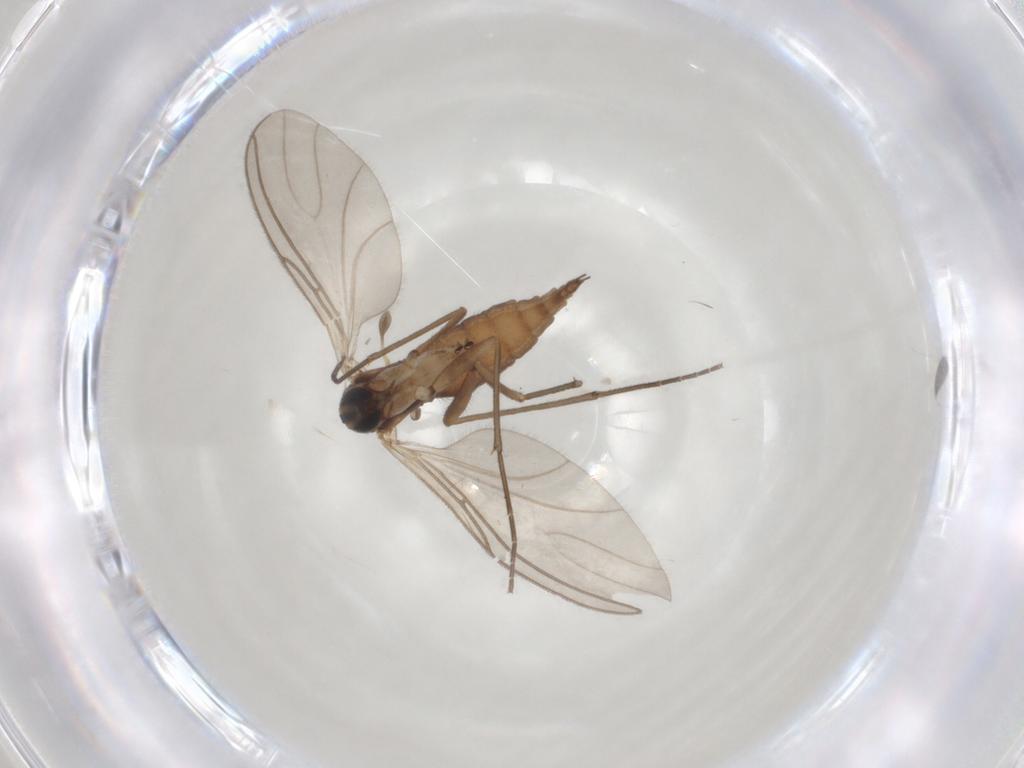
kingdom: Animalia
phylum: Arthropoda
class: Insecta
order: Diptera
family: Sciaridae
